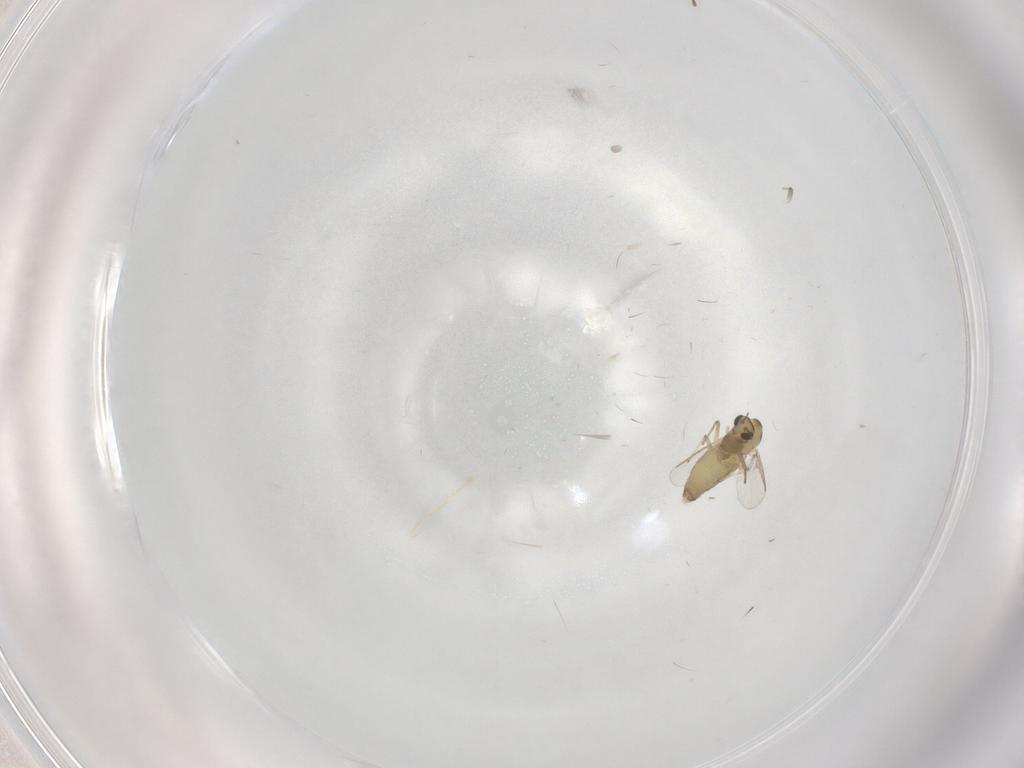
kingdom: Animalia
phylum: Arthropoda
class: Insecta
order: Diptera
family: Chironomidae
